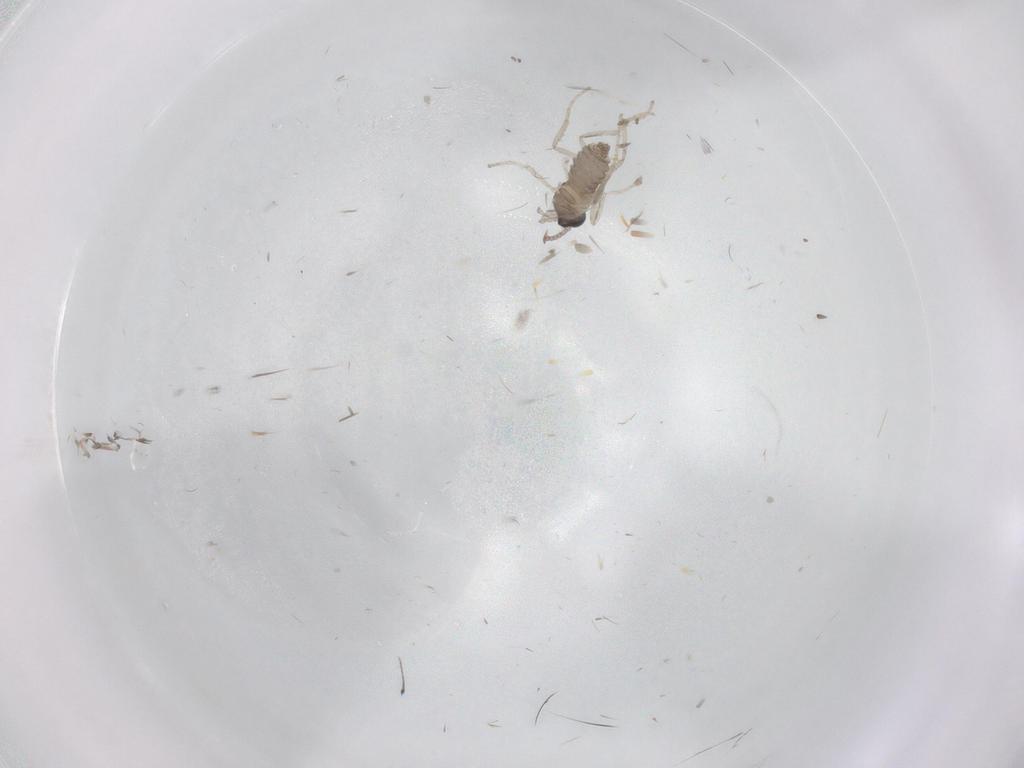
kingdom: Animalia
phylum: Arthropoda
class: Insecta
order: Diptera
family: Cecidomyiidae
